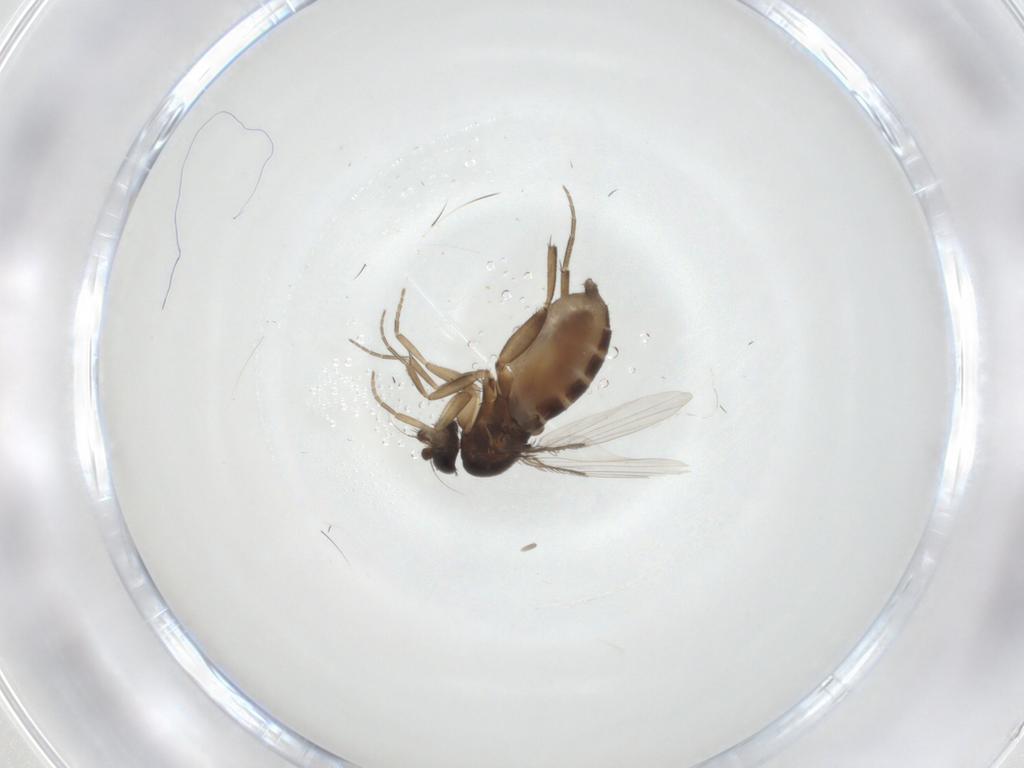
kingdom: Animalia
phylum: Arthropoda
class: Insecta
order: Diptera
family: Phoridae
